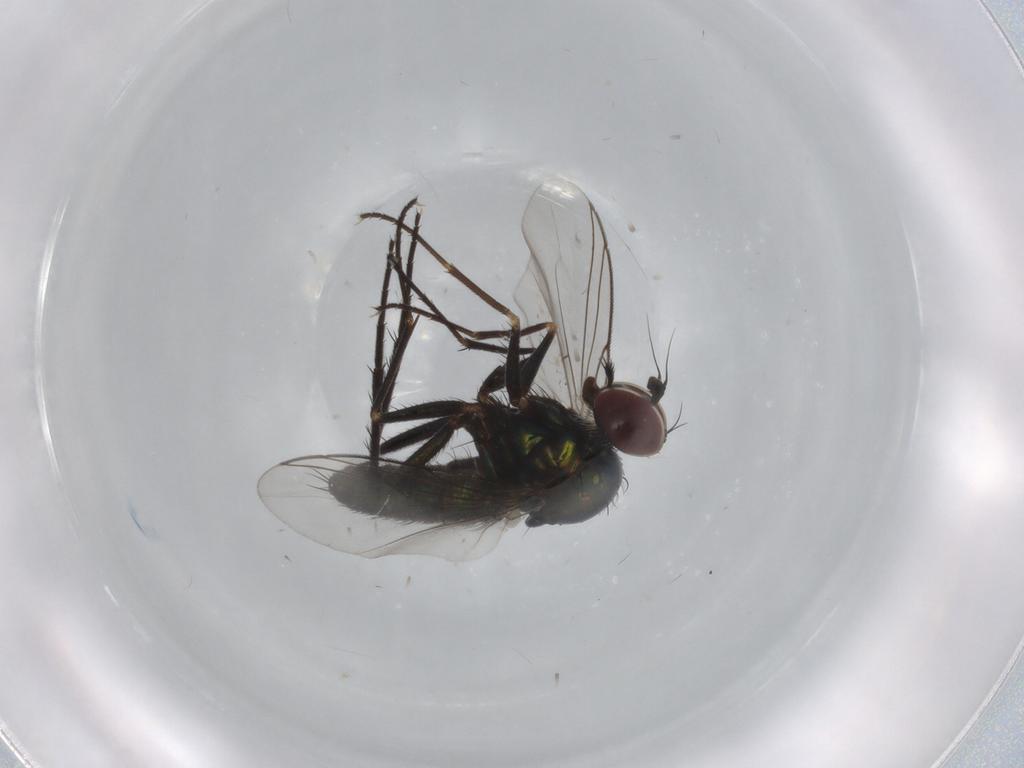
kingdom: Animalia
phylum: Arthropoda
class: Insecta
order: Diptera
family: Dolichopodidae
